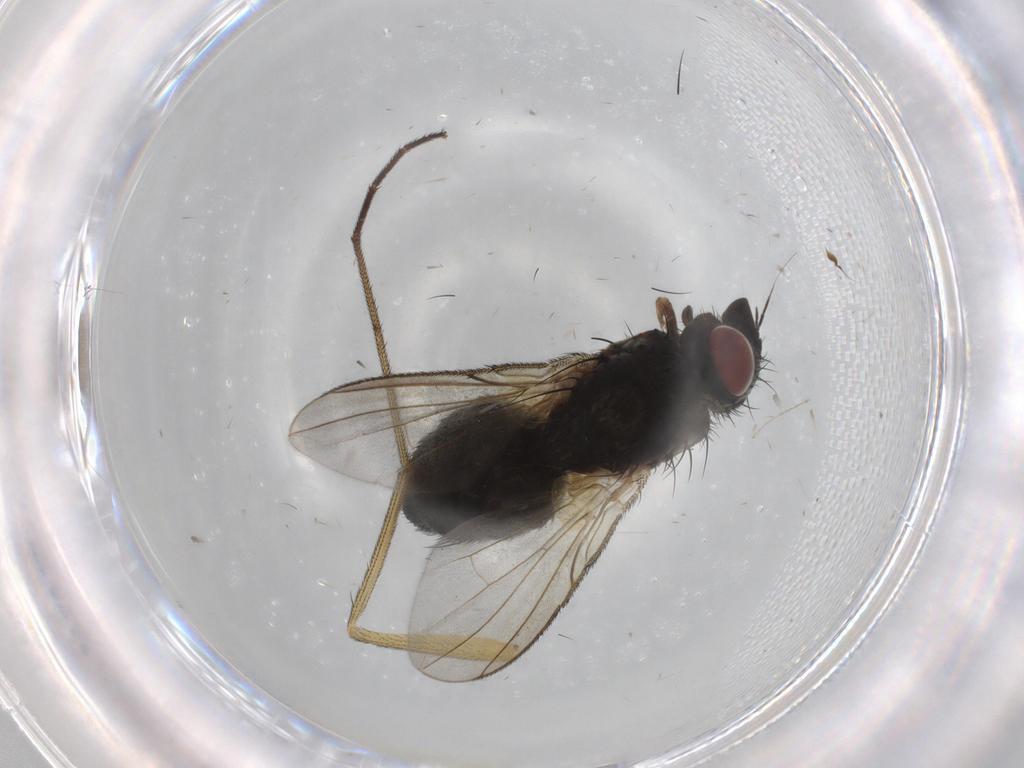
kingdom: Animalia
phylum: Arthropoda
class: Insecta
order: Diptera
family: Dolichopodidae
